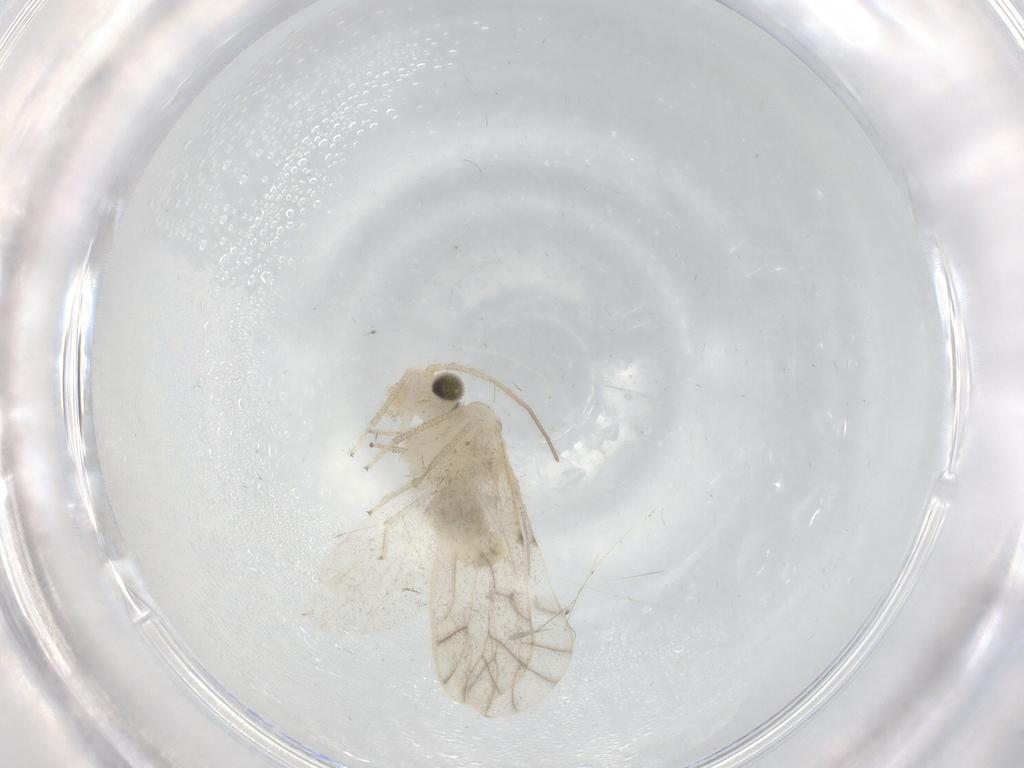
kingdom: Animalia
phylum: Arthropoda
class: Insecta
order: Psocodea
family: Caeciliusidae
